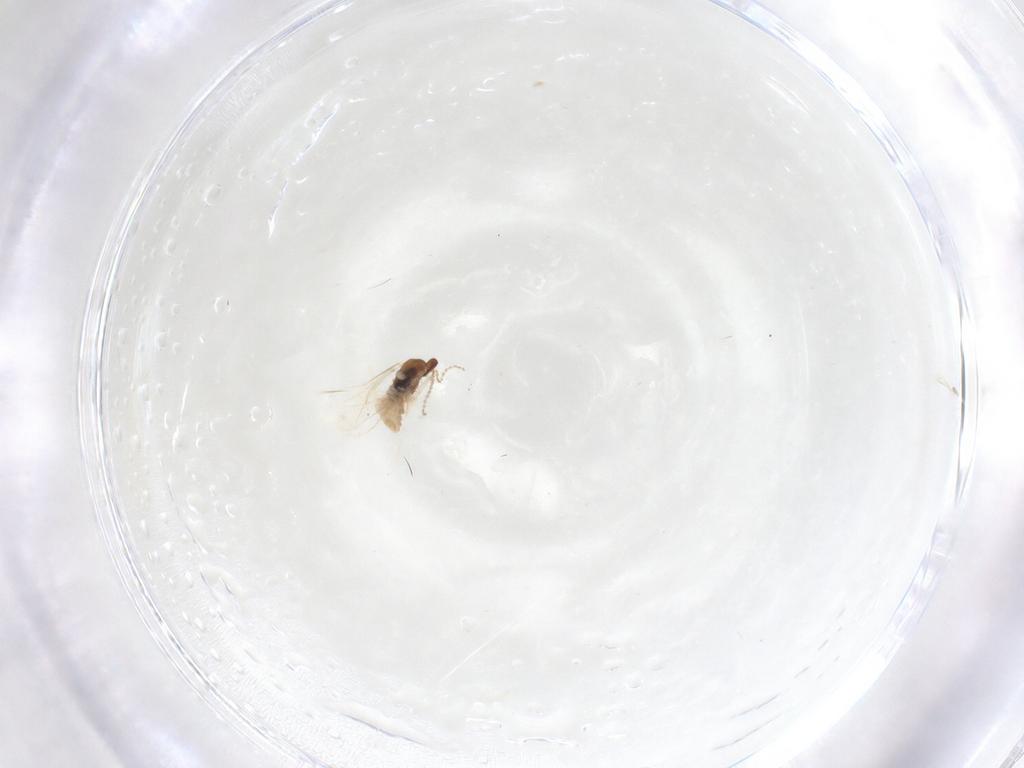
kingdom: Animalia
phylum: Arthropoda
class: Insecta
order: Diptera
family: Cecidomyiidae
